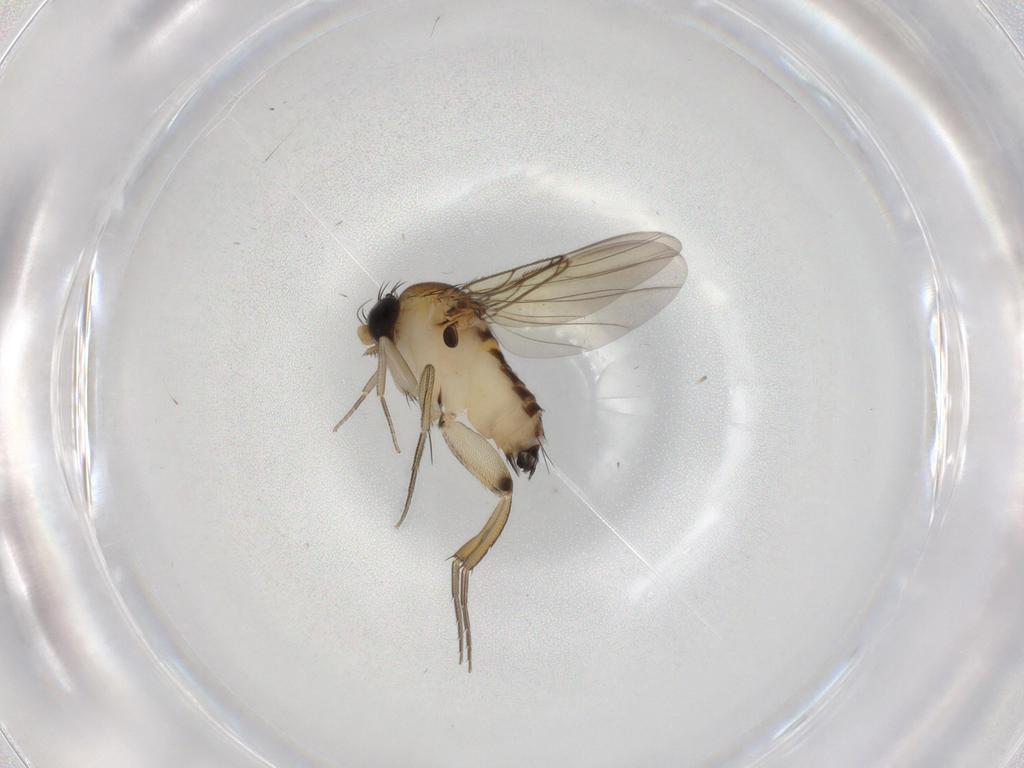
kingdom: Animalia
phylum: Arthropoda
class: Insecta
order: Diptera
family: Phoridae
